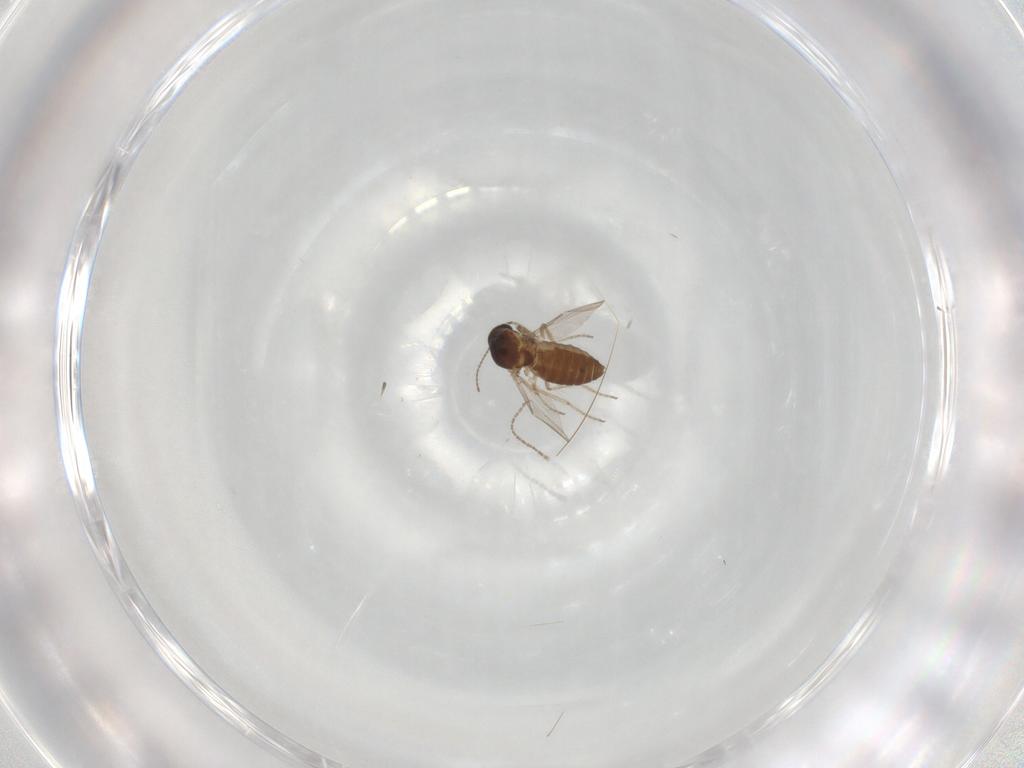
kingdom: Animalia
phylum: Arthropoda
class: Insecta
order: Diptera
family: Ceratopogonidae
